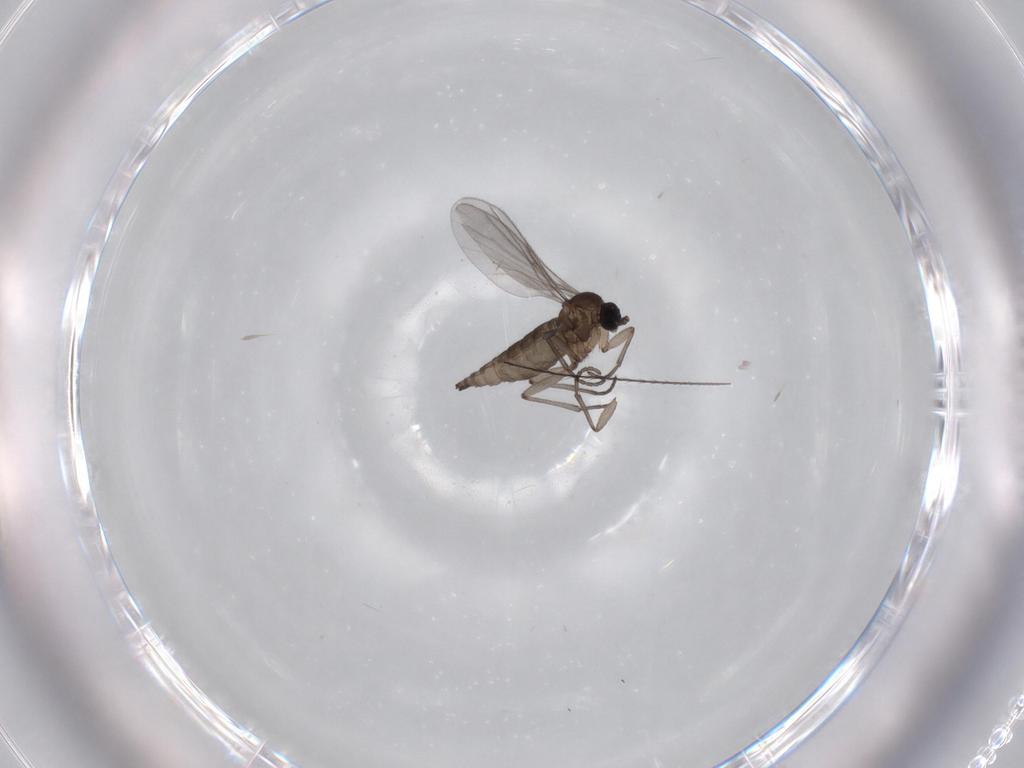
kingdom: Animalia
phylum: Arthropoda
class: Insecta
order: Diptera
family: Cecidomyiidae
